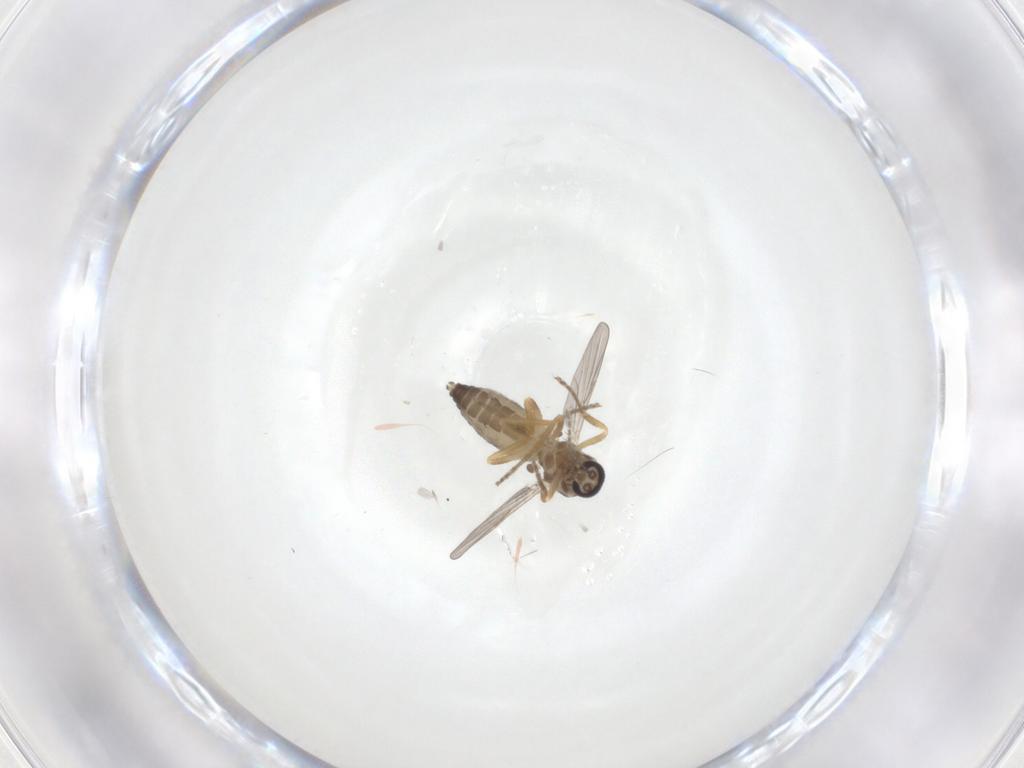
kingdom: Animalia
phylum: Arthropoda
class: Insecta
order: Diptera
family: Ceratopogonidae
